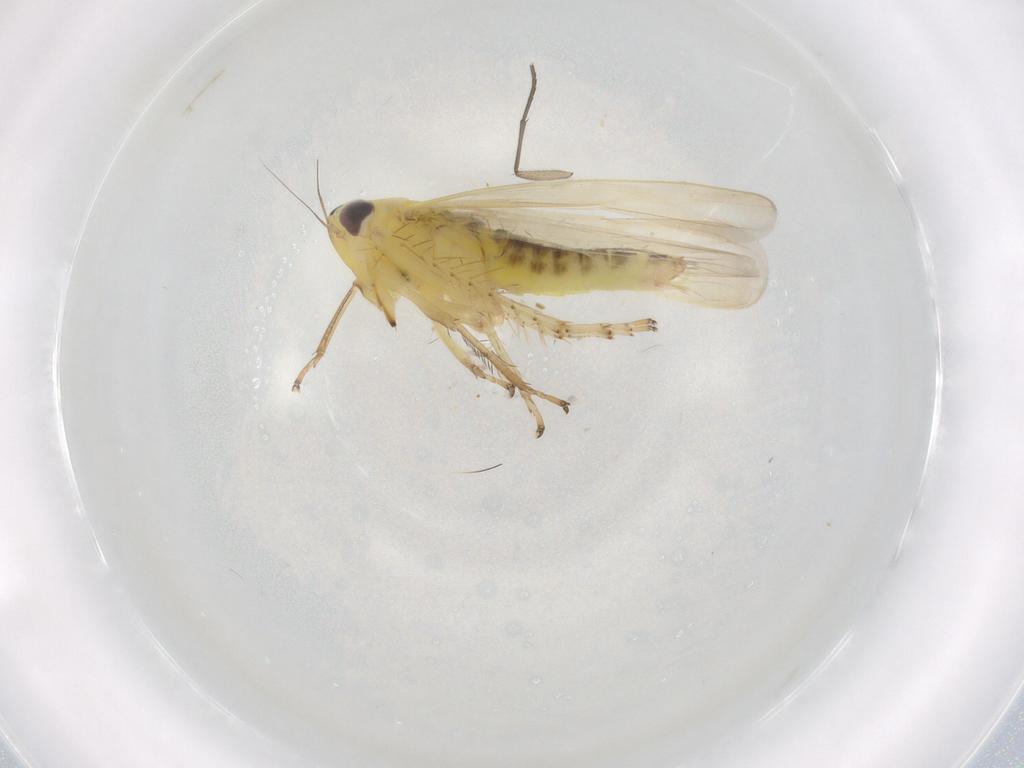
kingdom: Animalia
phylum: Arthropoda
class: Insecta
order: Hemiptera
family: Cicadellidae
